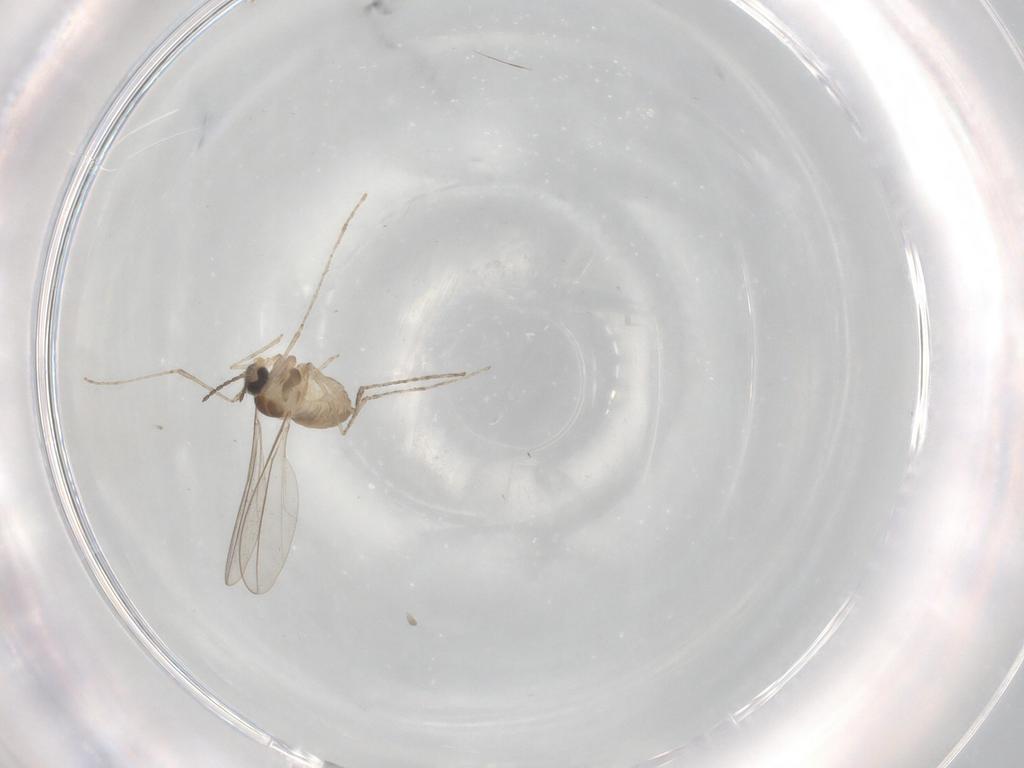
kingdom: Animalia
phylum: Arthropoda
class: Insecta
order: Diptera
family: Cecidomyiidae
